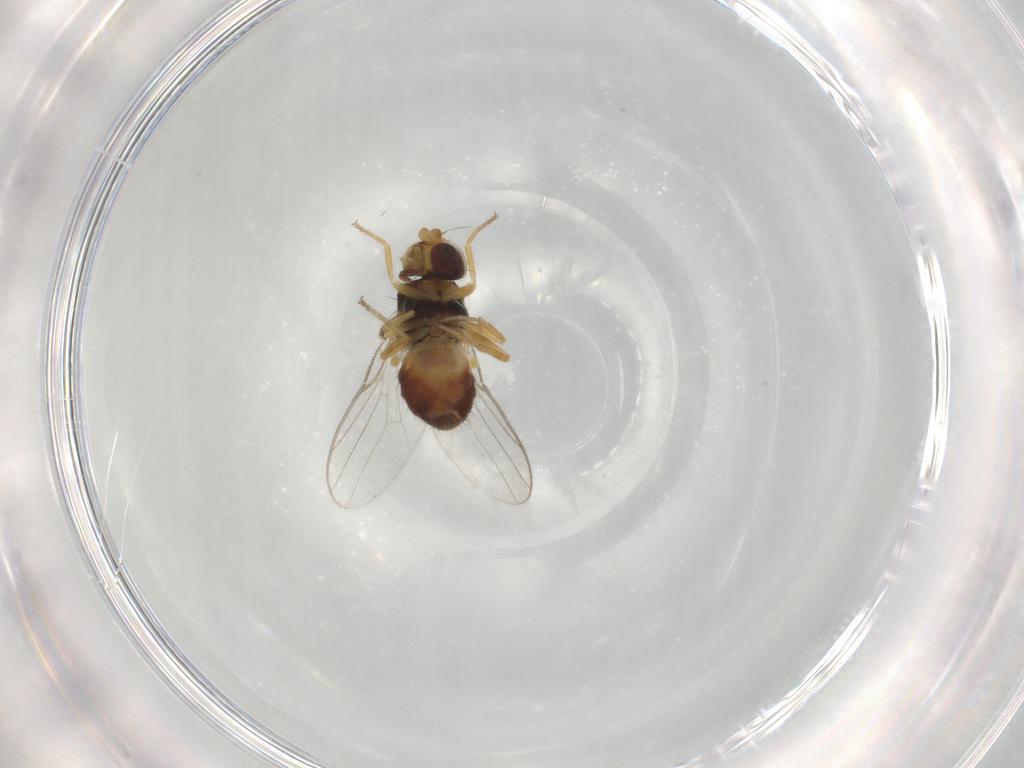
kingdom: Animalia
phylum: Arthropoda
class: Insecta
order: Diptera
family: Chloropidae
